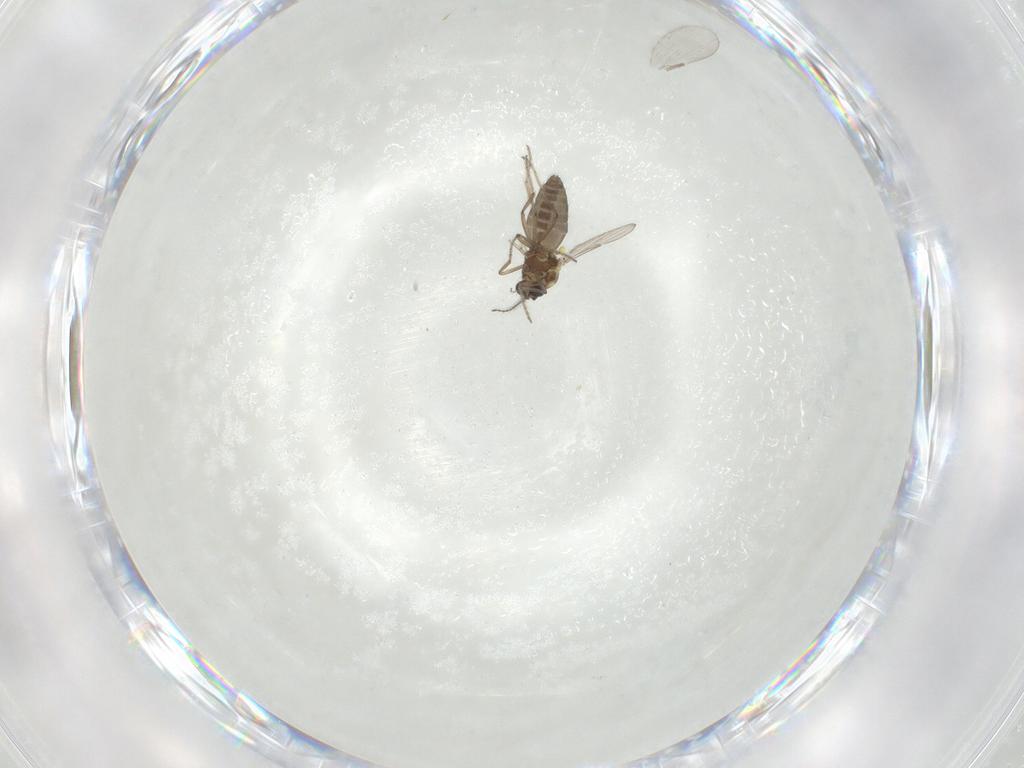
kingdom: Animalia
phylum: Arthropoda
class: Insecta
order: Diptera
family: Ceratopogonidae
